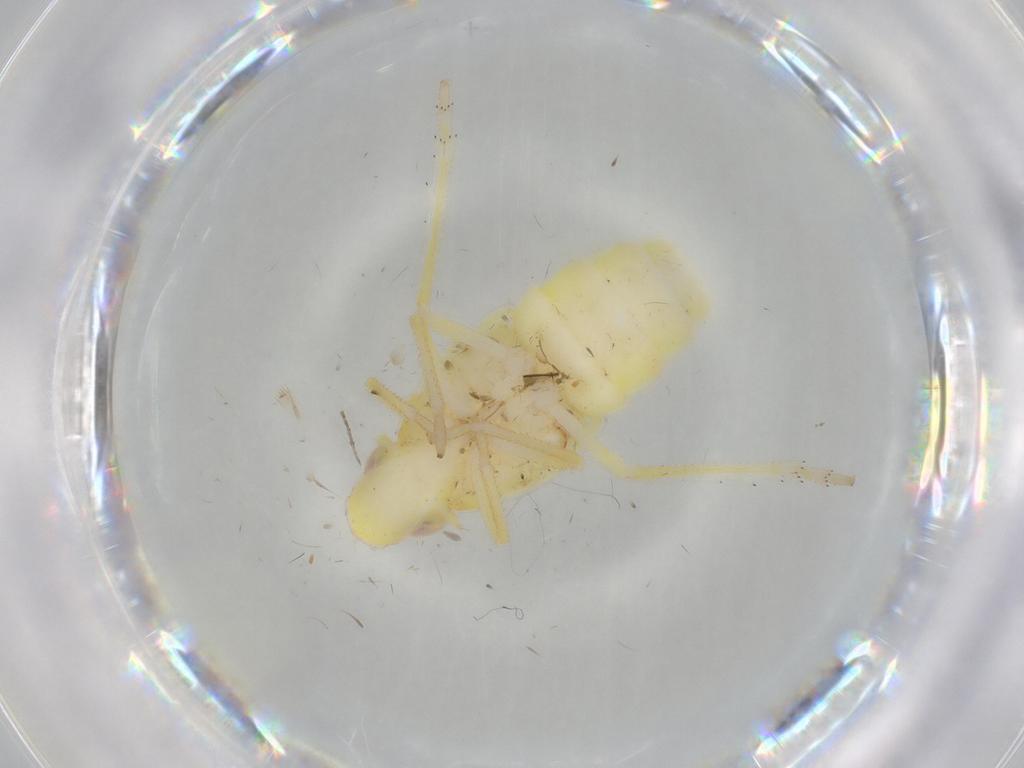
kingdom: Animalia
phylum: Arthropoda
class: Insecta
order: Hemiptera
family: Tropiduchidae
